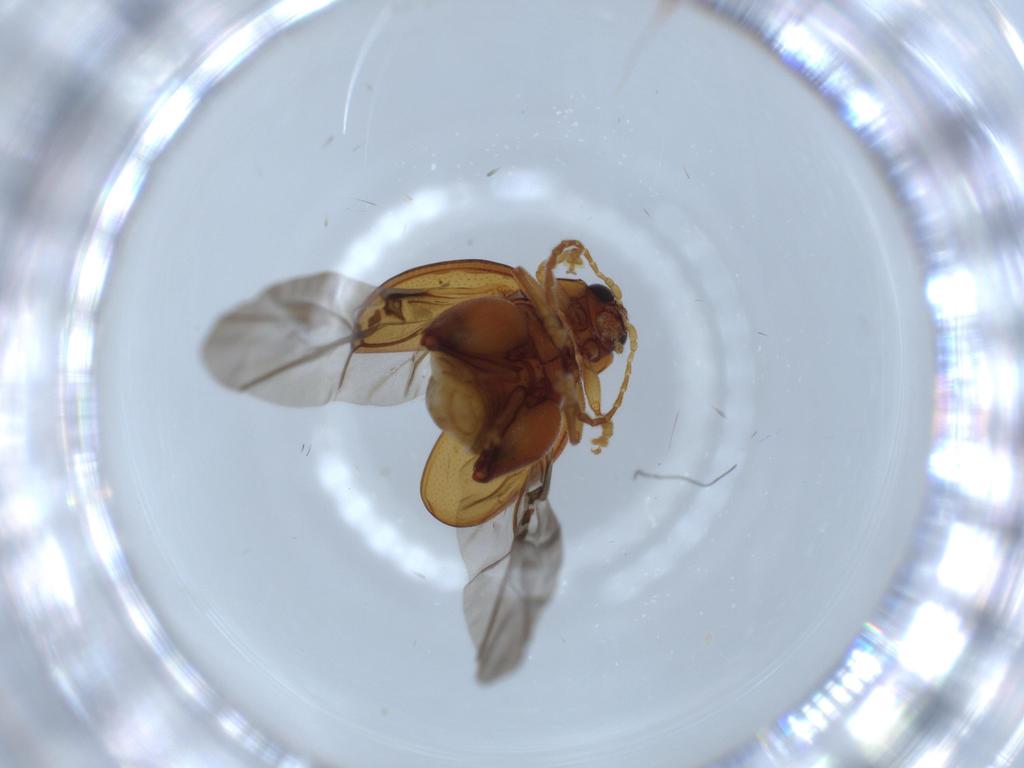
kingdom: Animalia
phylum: Arthropoda
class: Insecta
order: Coleoptera
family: Chrysomelidae
